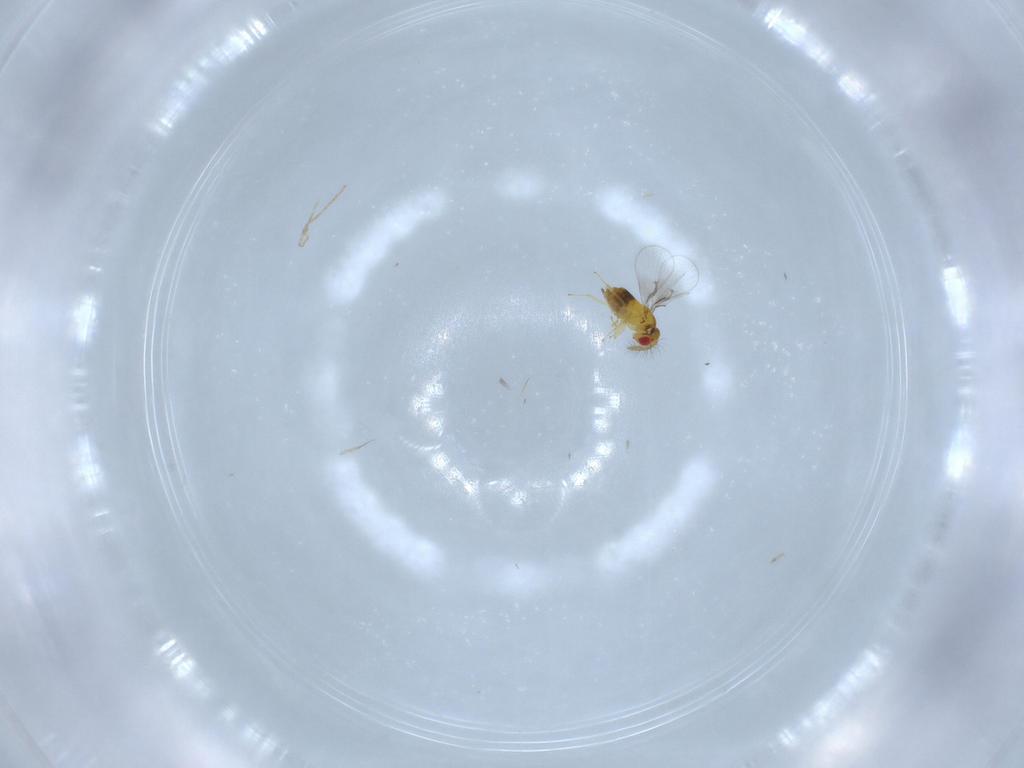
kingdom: Animalia
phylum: Arthropoda
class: Insecta
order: Hymenoptera
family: Trichogrammatidae
